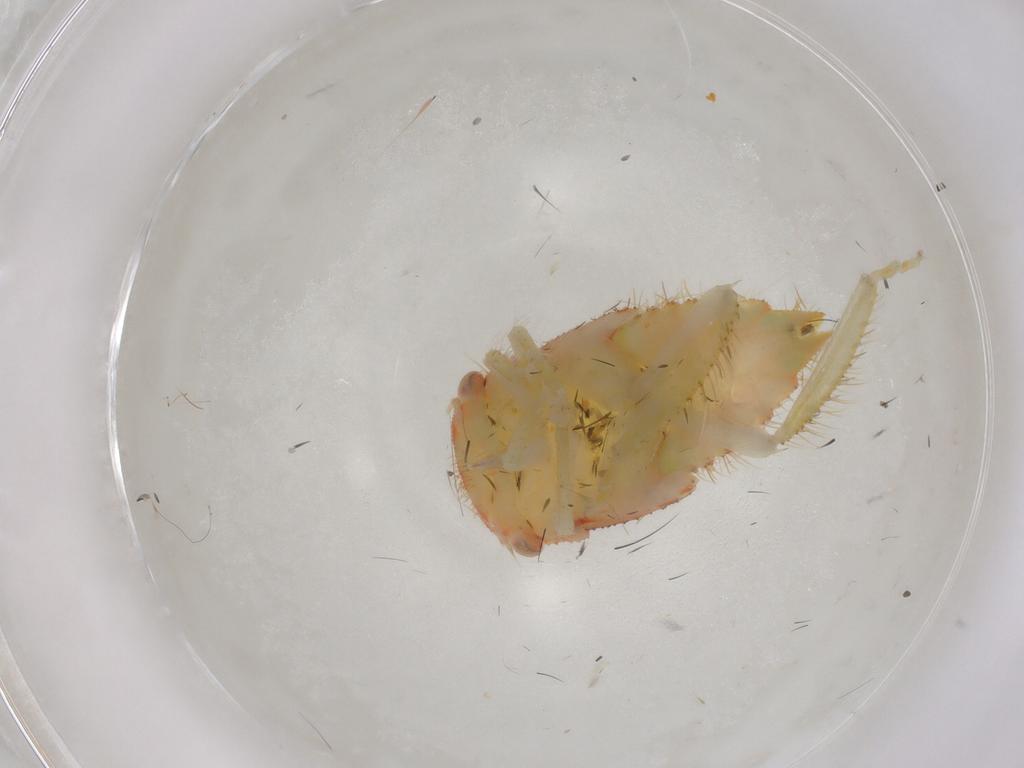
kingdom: Animalia
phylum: Arthropoda
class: Insecta
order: Hemiptera
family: Cicadellidae
